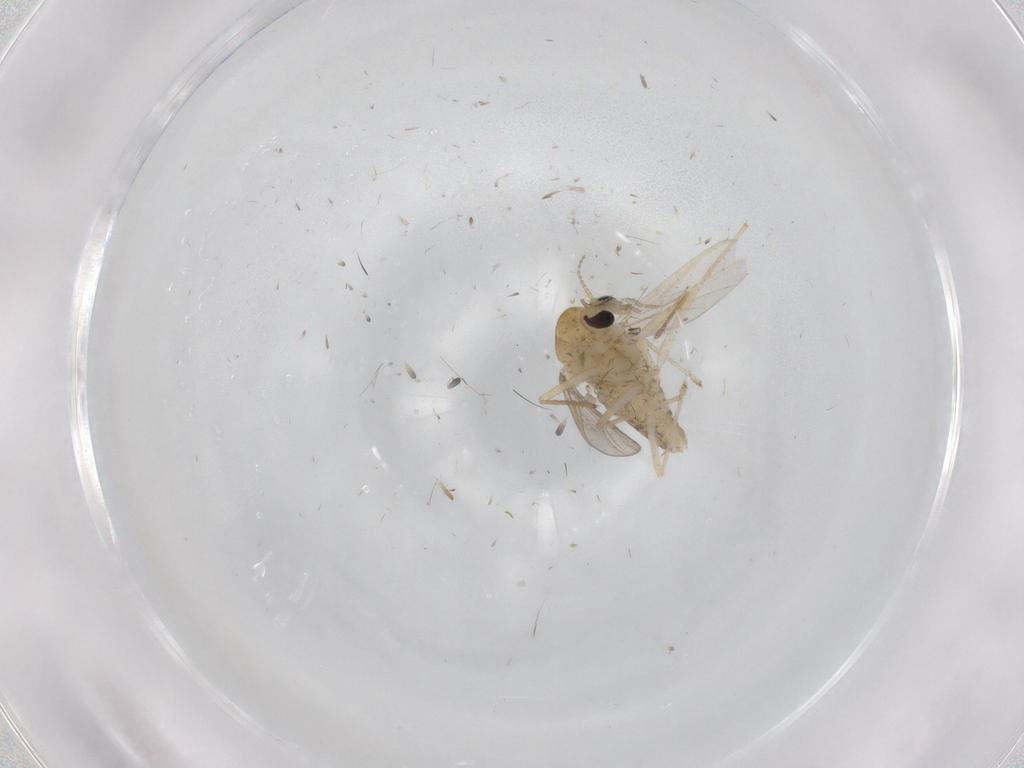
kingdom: Animalia
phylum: Arthropoda
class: Insecta
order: Diptera
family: Chironomidae
